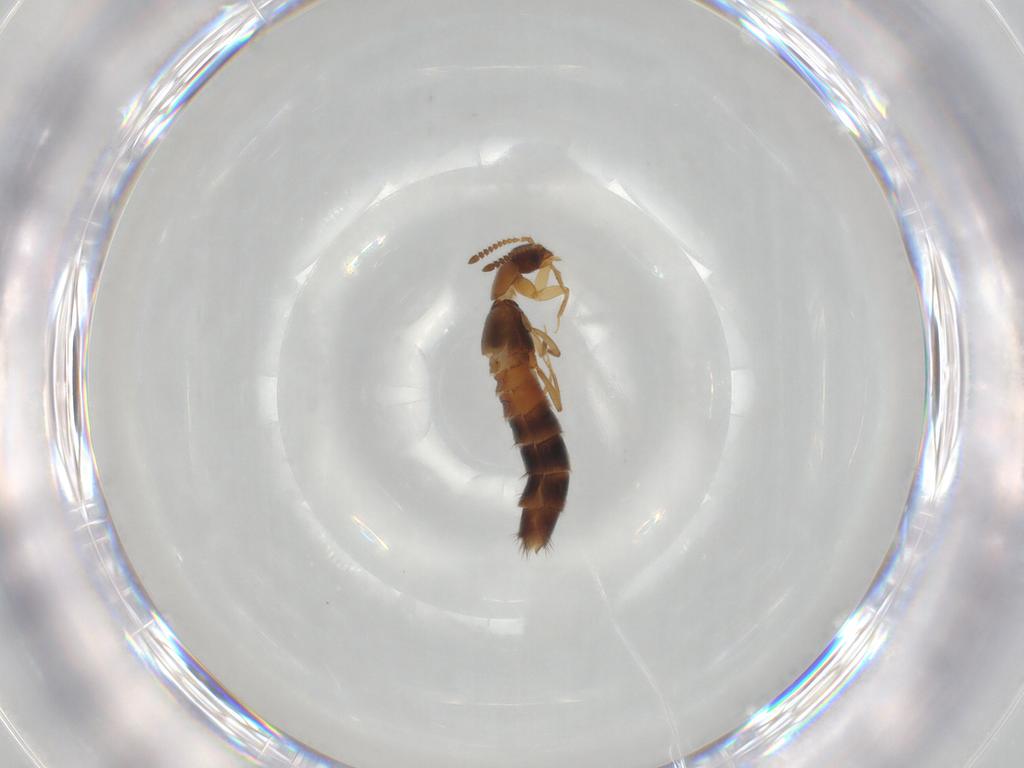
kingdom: Animalia
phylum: Arthropoda
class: Insecta
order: Coleoptera
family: Staphylinidae
